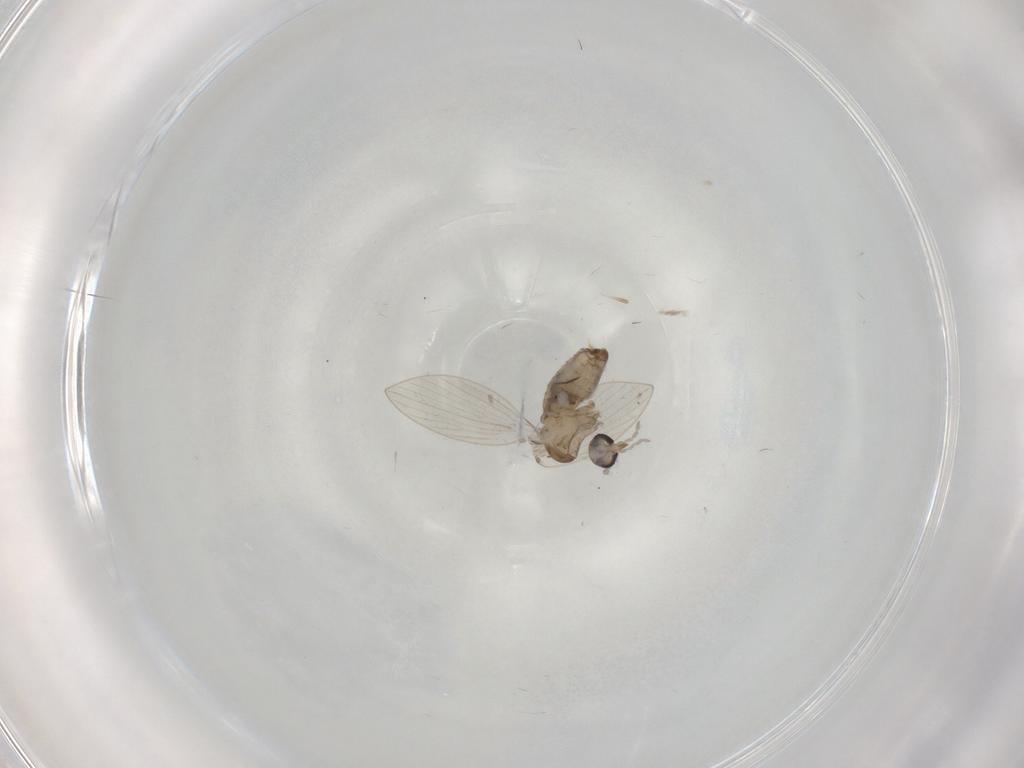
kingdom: Animalia
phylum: Arthropoda
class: Insecta
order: Diptera
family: Psychodidae
